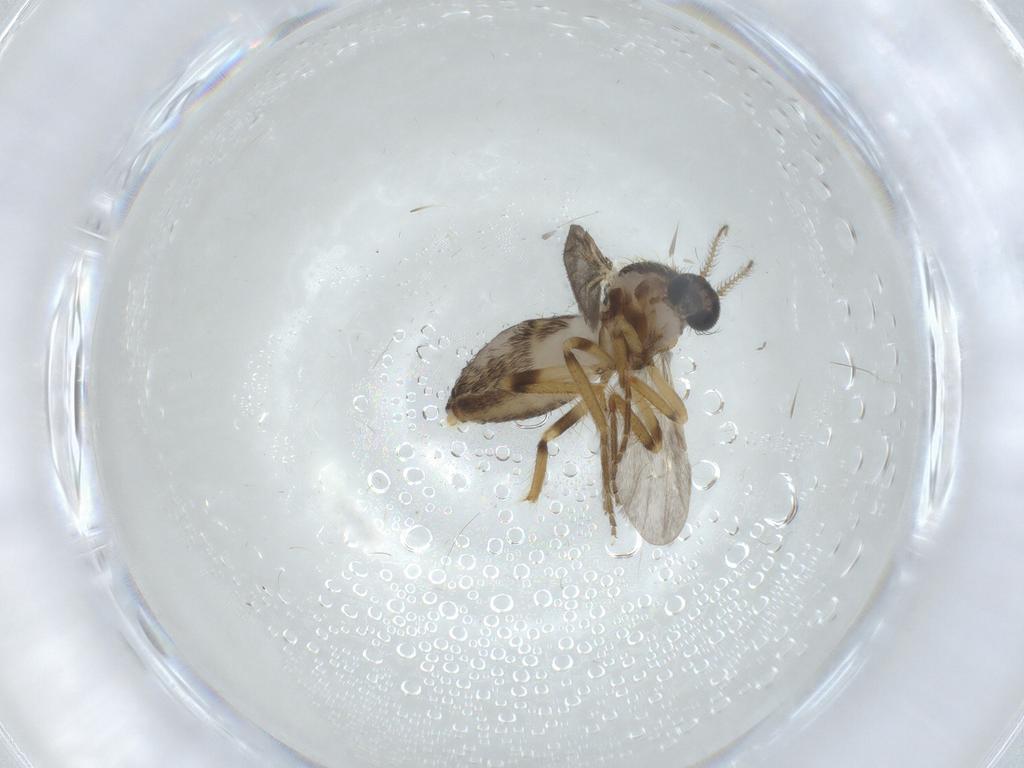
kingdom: Animalia
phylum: Arthropoda
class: Insecta
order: Diptera
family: Ceratopogonidae
